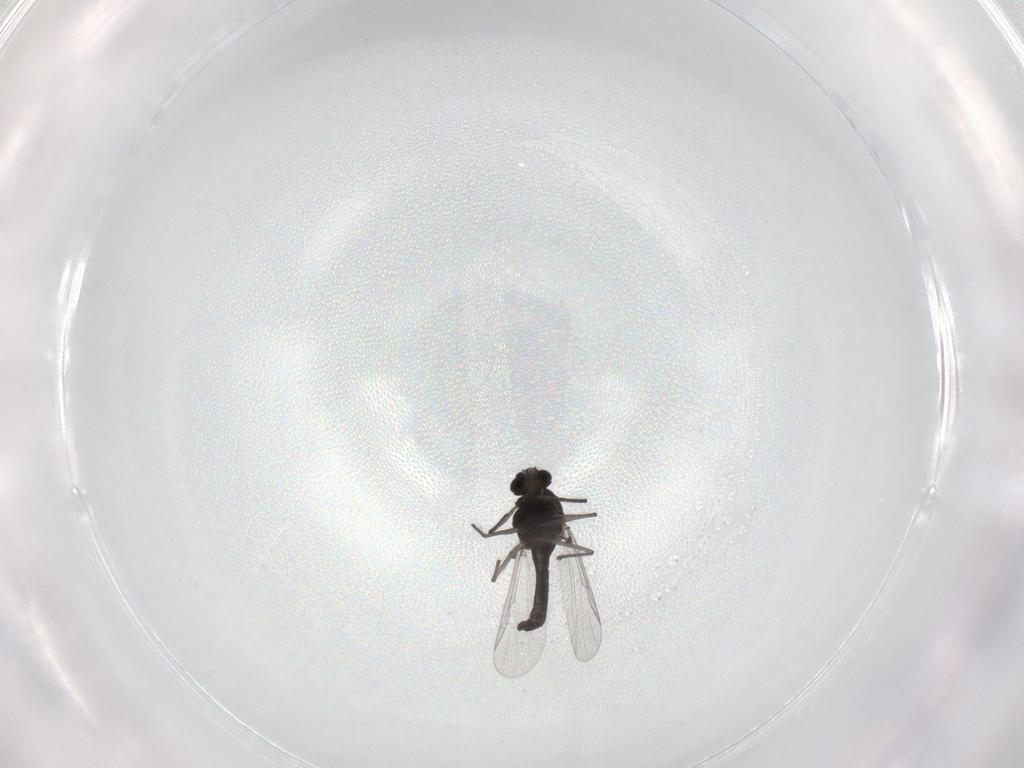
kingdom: Animalia
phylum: Arthropoda
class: Insecta
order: Diptera
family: Chironomidae
